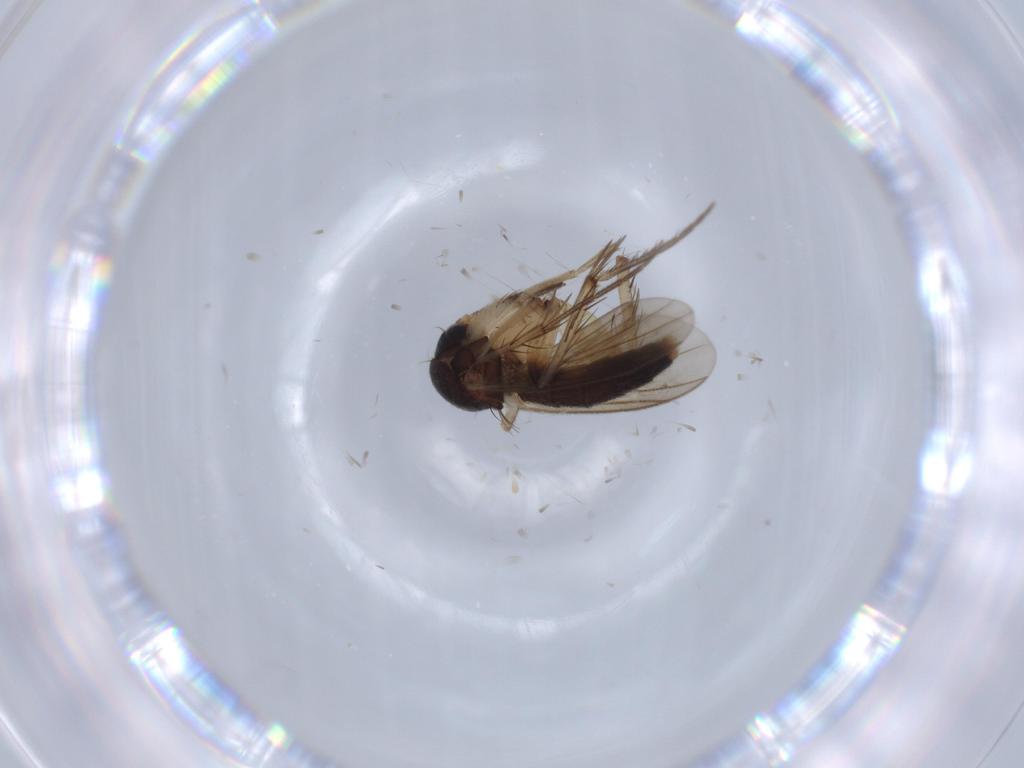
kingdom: Animalia
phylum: Arthropoda
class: Insecta
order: Diptera
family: Mycetophilidae
